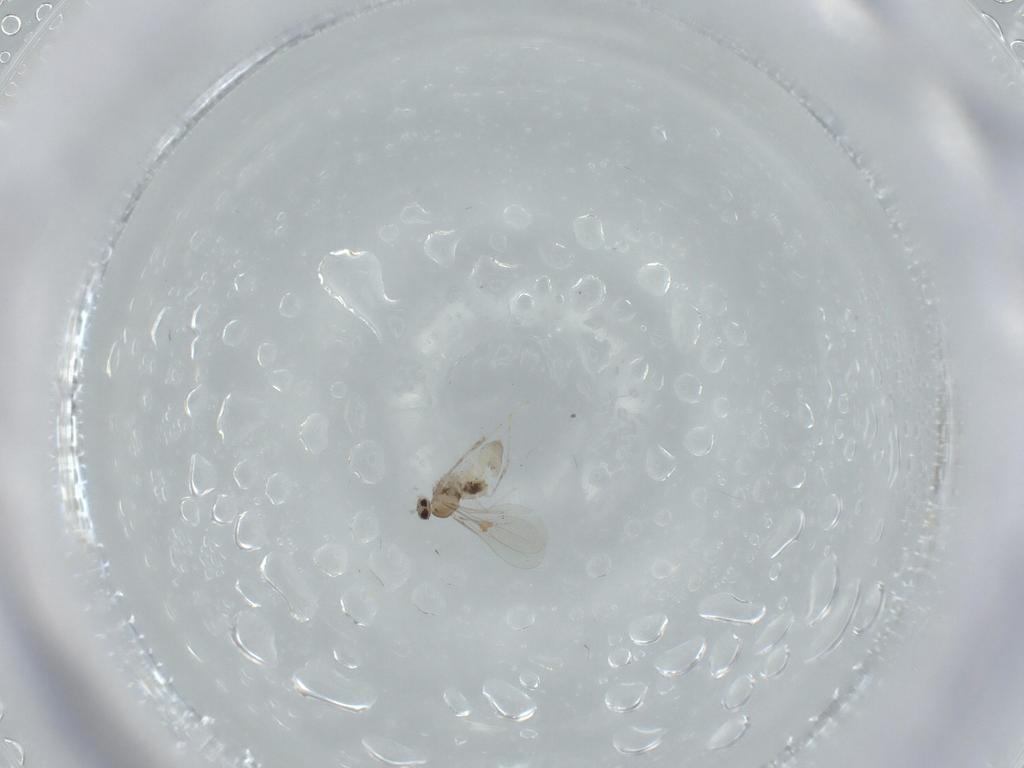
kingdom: Animalia
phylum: Arthropoda
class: Insecta
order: Diptera
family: Cecidomyiidae
